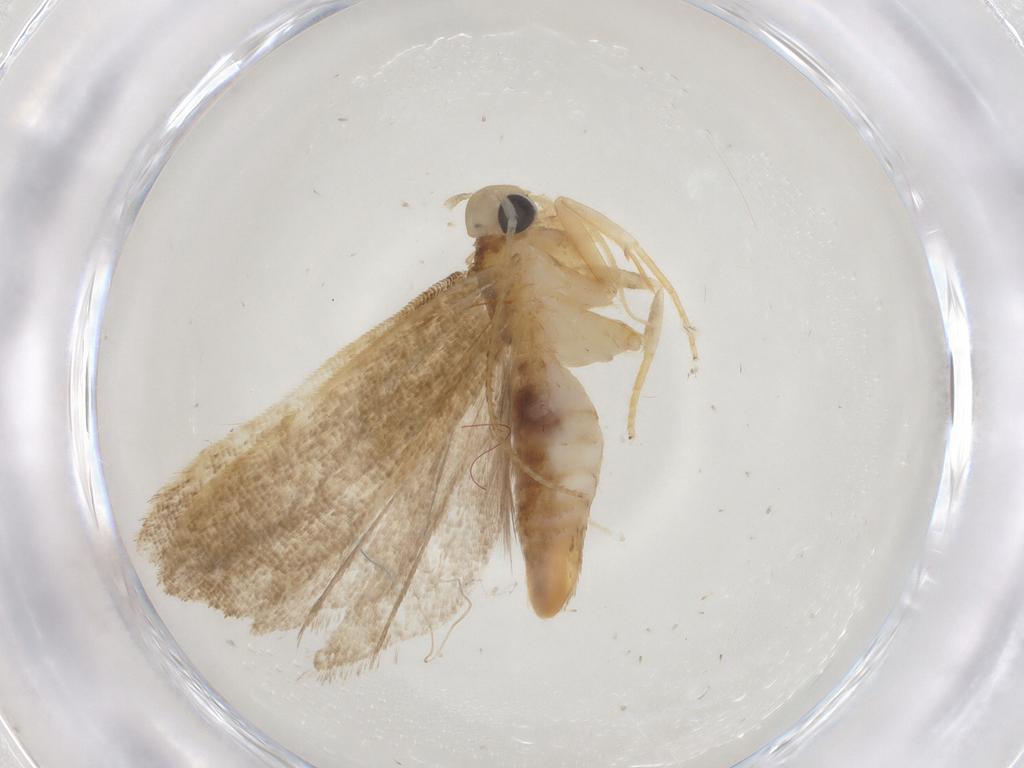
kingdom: Animalia
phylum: Arthropoda
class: Insecta
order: Lepidoptera
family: Gelechiidae
